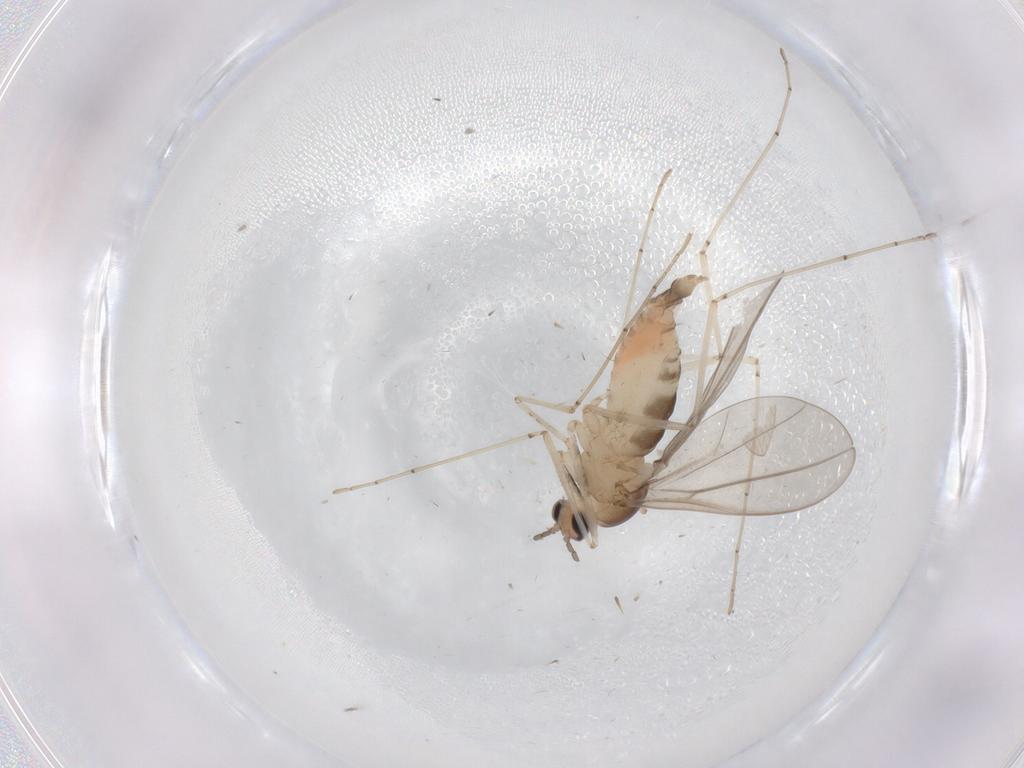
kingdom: Animalia
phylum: Arthropoda
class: Insecta
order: Diptera
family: Cecidomyiidae
